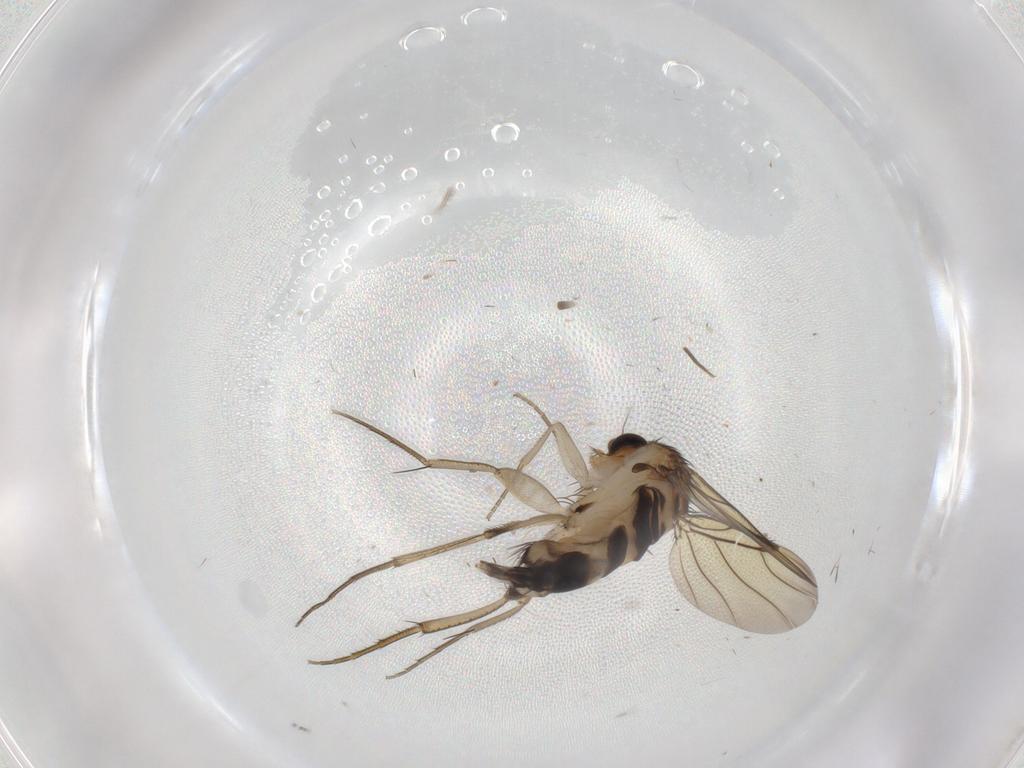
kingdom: Animalia
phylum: Arthropoda
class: Insecta
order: Diptera
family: Phoridae
